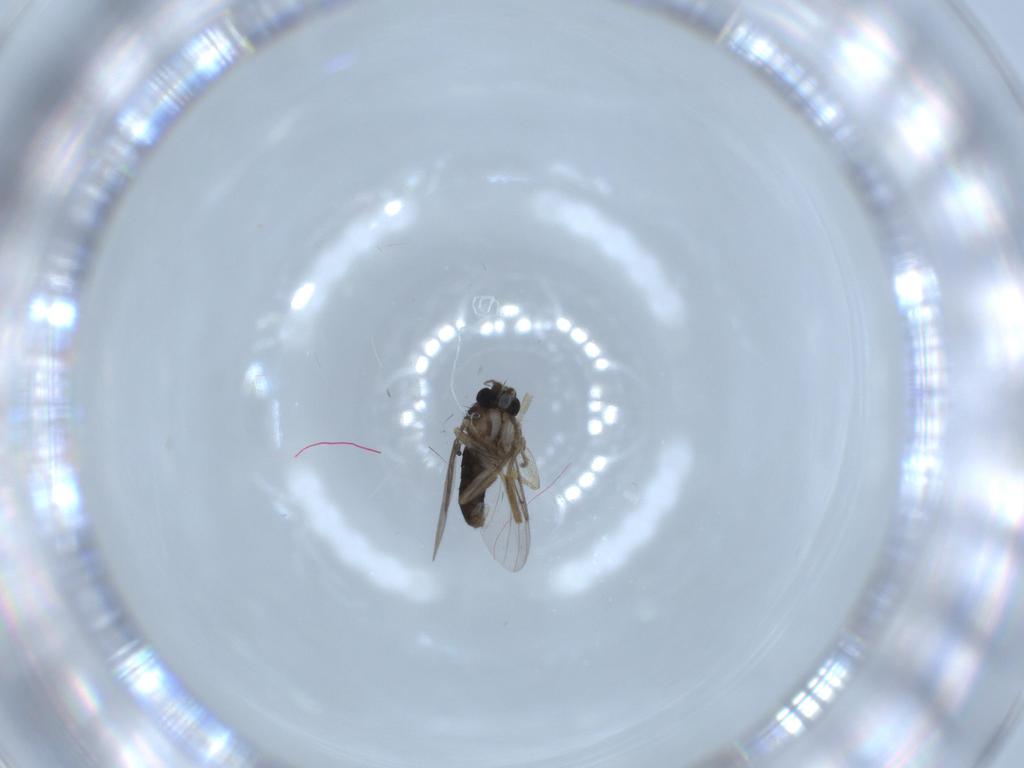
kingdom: Animalia
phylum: Arthropoda
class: Insecta
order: Diptera
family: Phoridae
